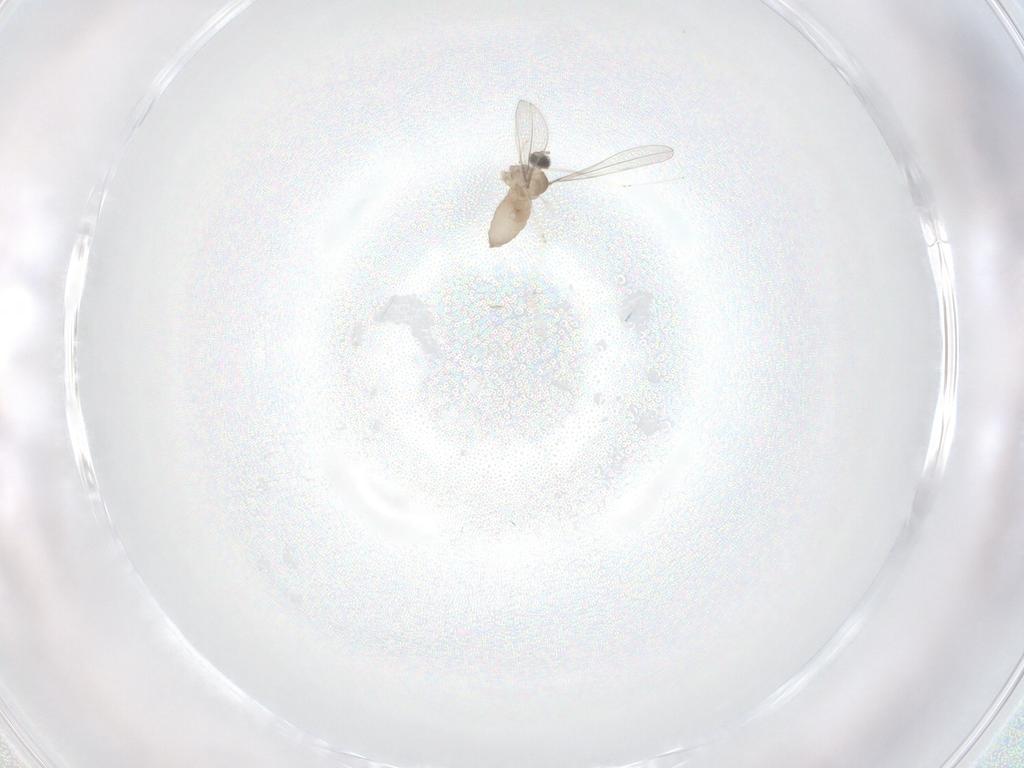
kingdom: Animalia
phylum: Arthropoda
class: Insecta
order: Diptera
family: Cecidomyiidae
